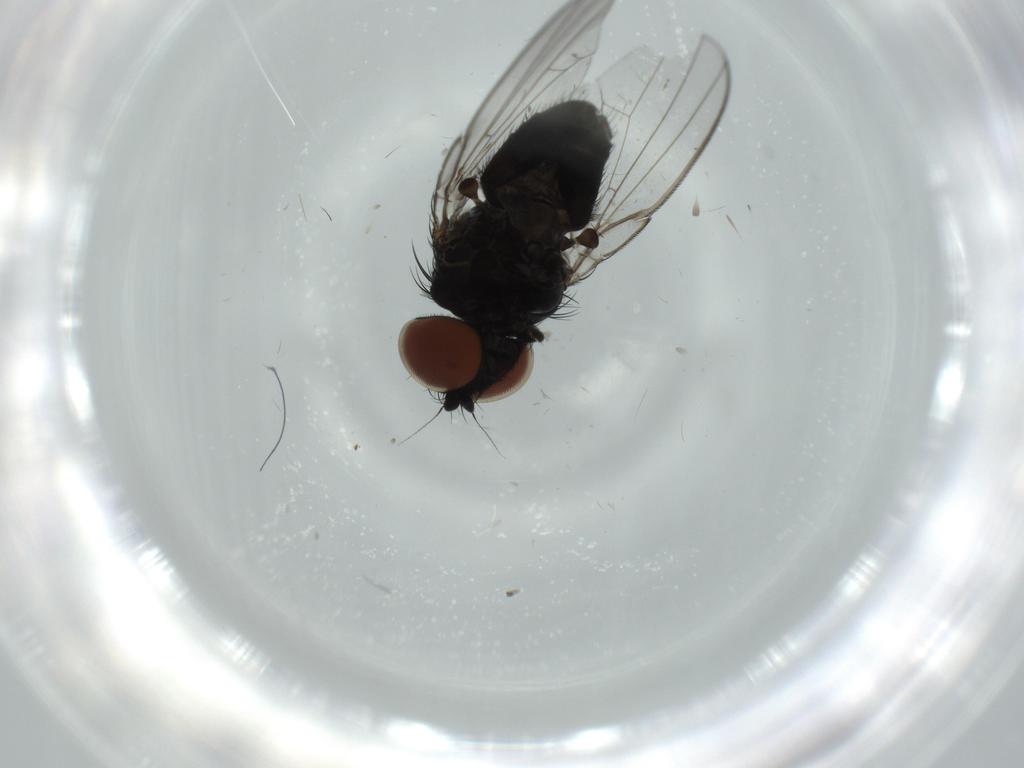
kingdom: Animalia
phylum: Arthropoda
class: Insecta
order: Diptera
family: Milichiidae
